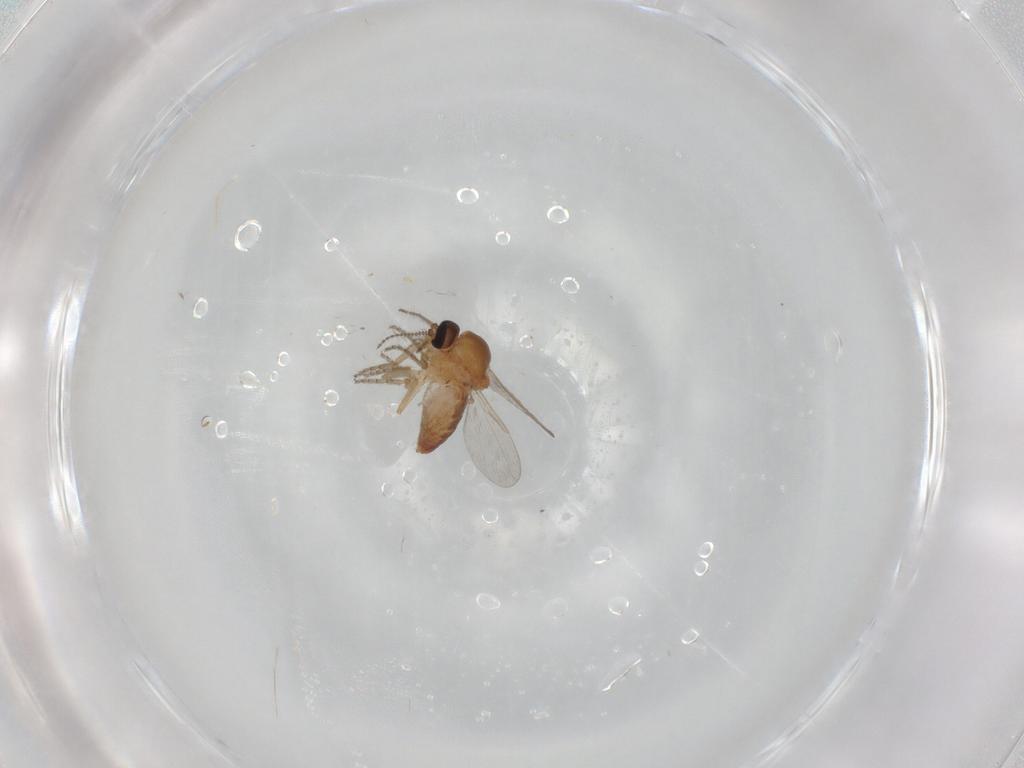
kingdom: Animalia
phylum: Arthropoda
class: Insecta
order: Diptera
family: Ceratopogonidae
